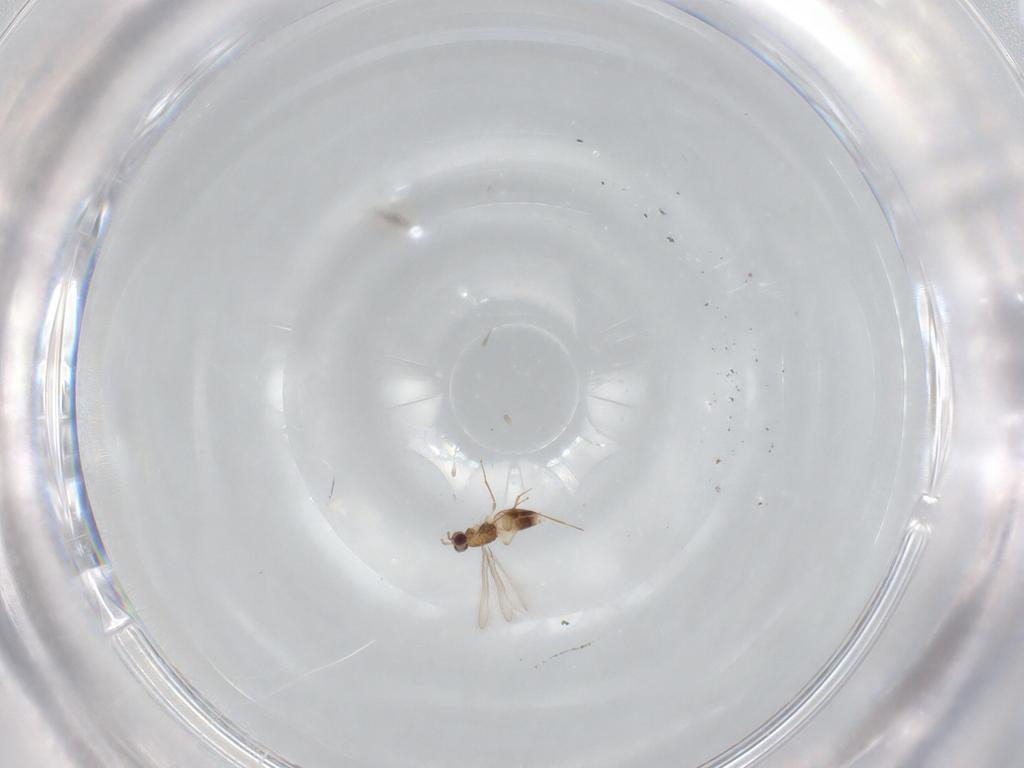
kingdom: Animalia
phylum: Arthropoda
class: Insecta
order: Hymenoptera
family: Mymaridae
